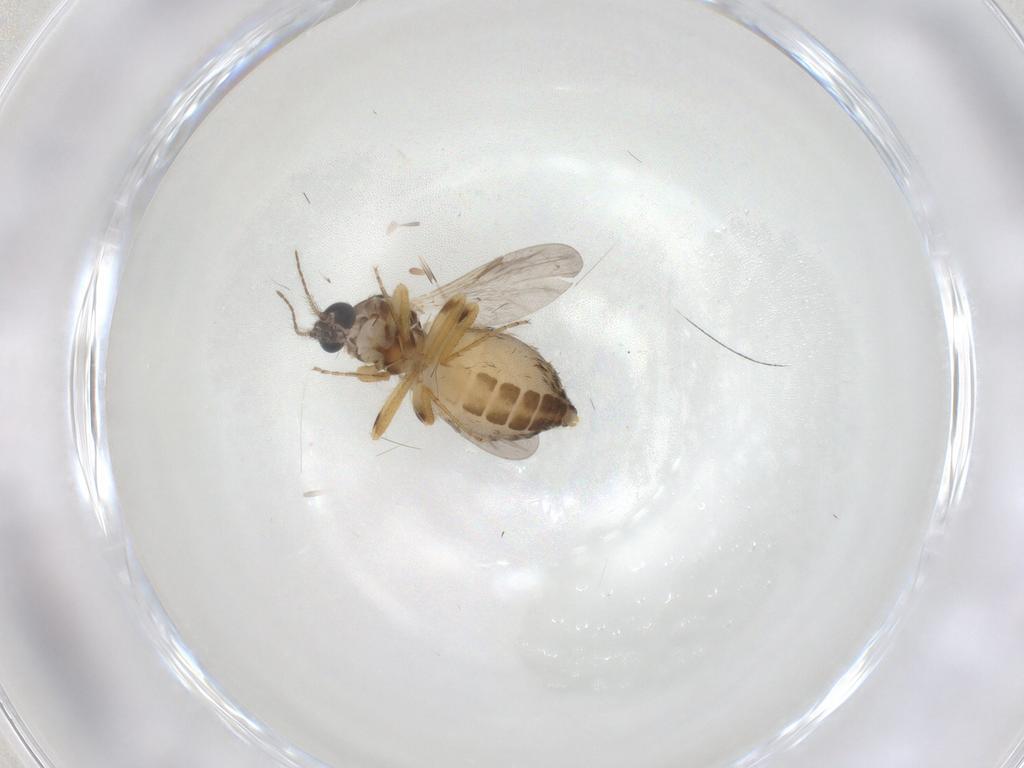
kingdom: Animalia
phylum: Arthropoda
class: Insecta
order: Diptera
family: Ceratopogonidae
